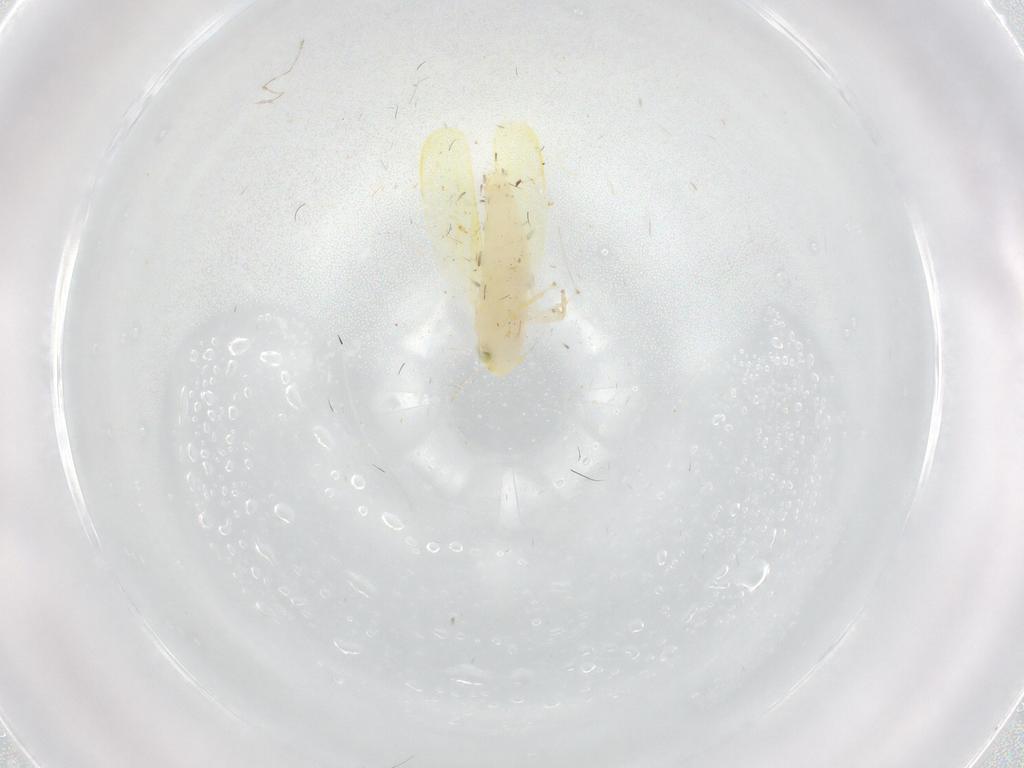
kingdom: Animalia
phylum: Arthropoda
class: Insecta
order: Hemiptera
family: Cicadellidae
